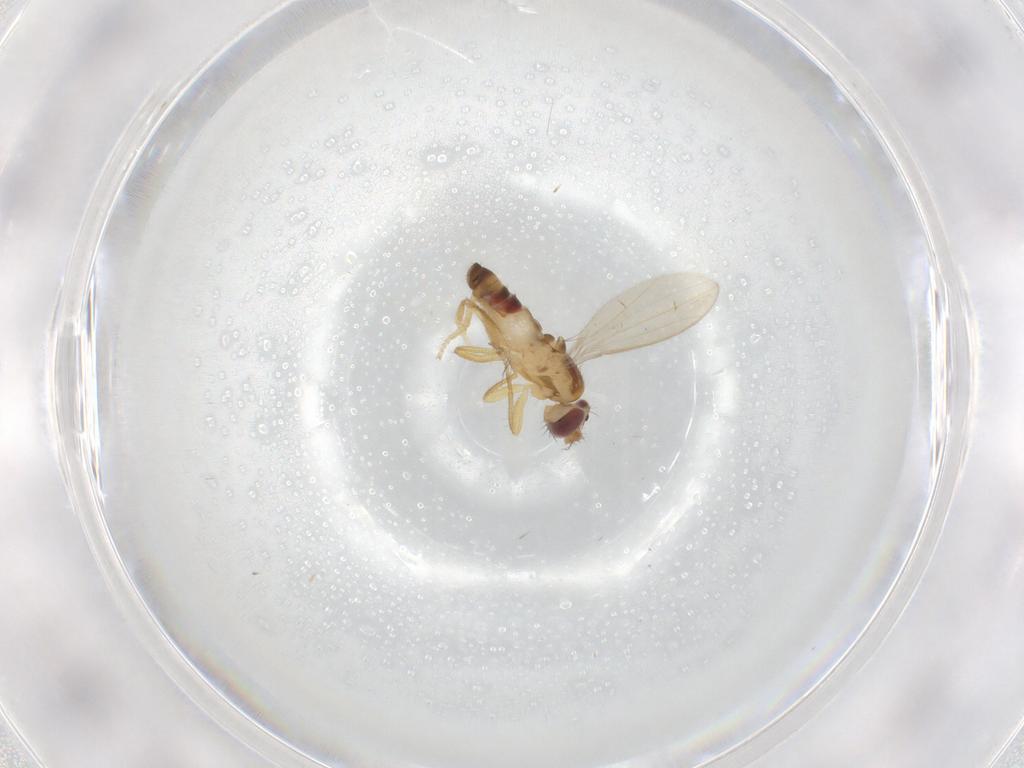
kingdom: Animalia
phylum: Arthropoda
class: Insecta
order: Diptera
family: Periscelididae
